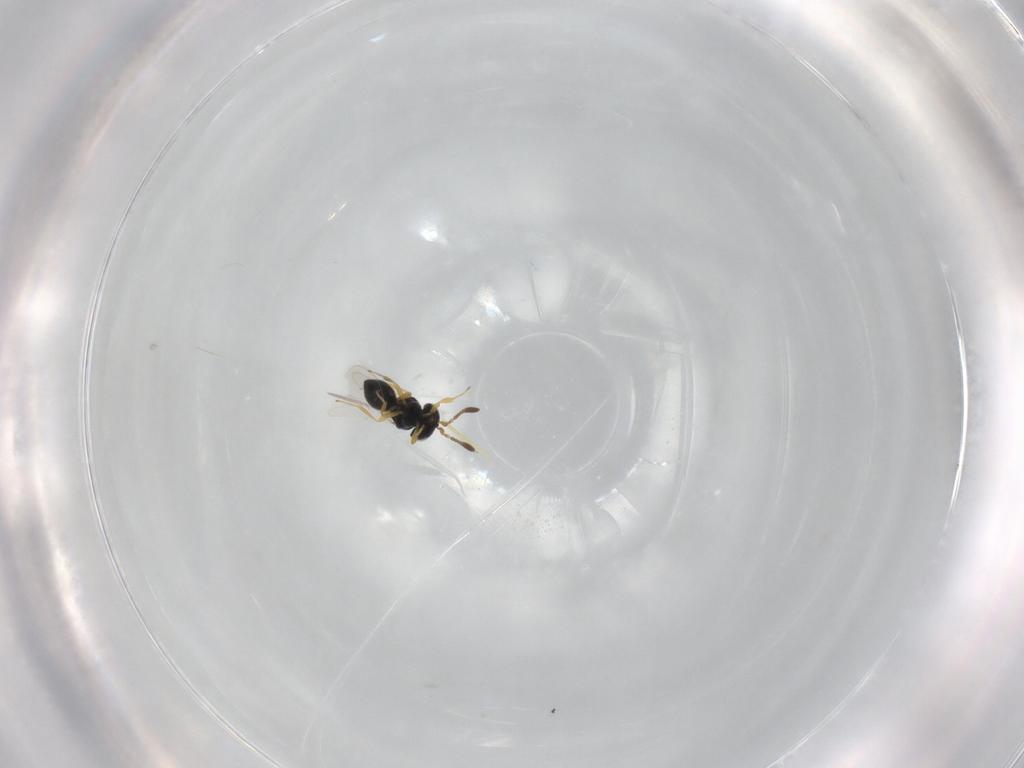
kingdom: Animalia
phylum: Arthropoda
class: Insecta
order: Hymenoptera
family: Scelionidae
